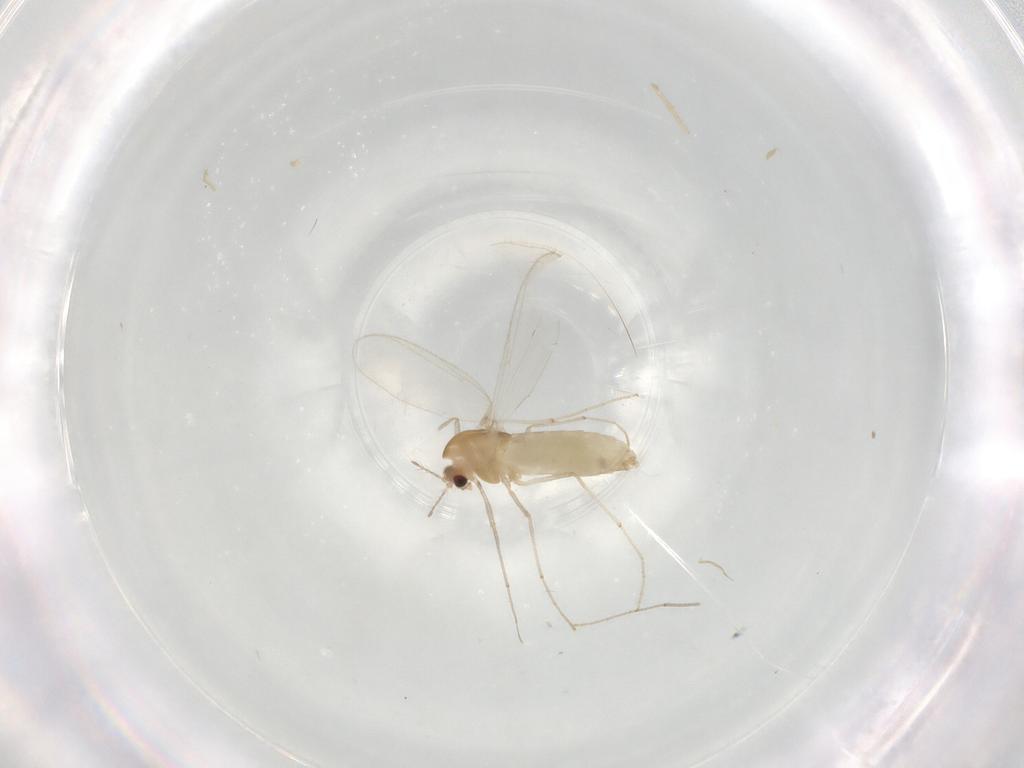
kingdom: Animalia
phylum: Arthropoda
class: Insecta
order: Diptera
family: Chironomidae
